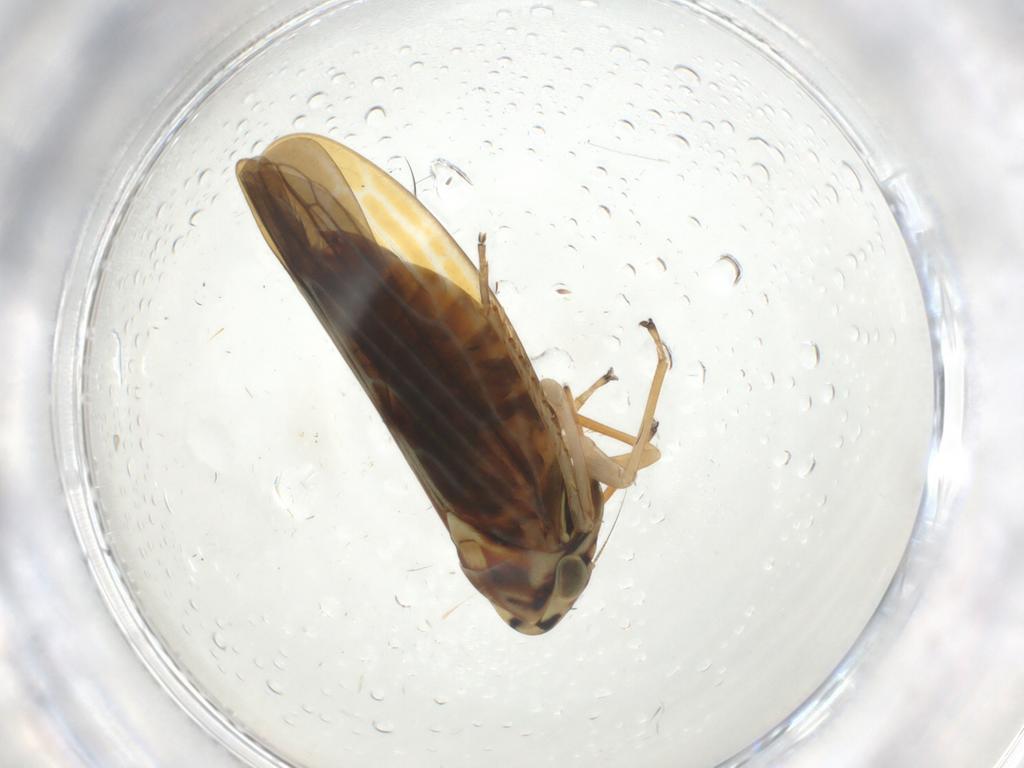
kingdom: Animalia
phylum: Arthropoda
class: Insecta
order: Hemiptera
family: Cicadellidae
